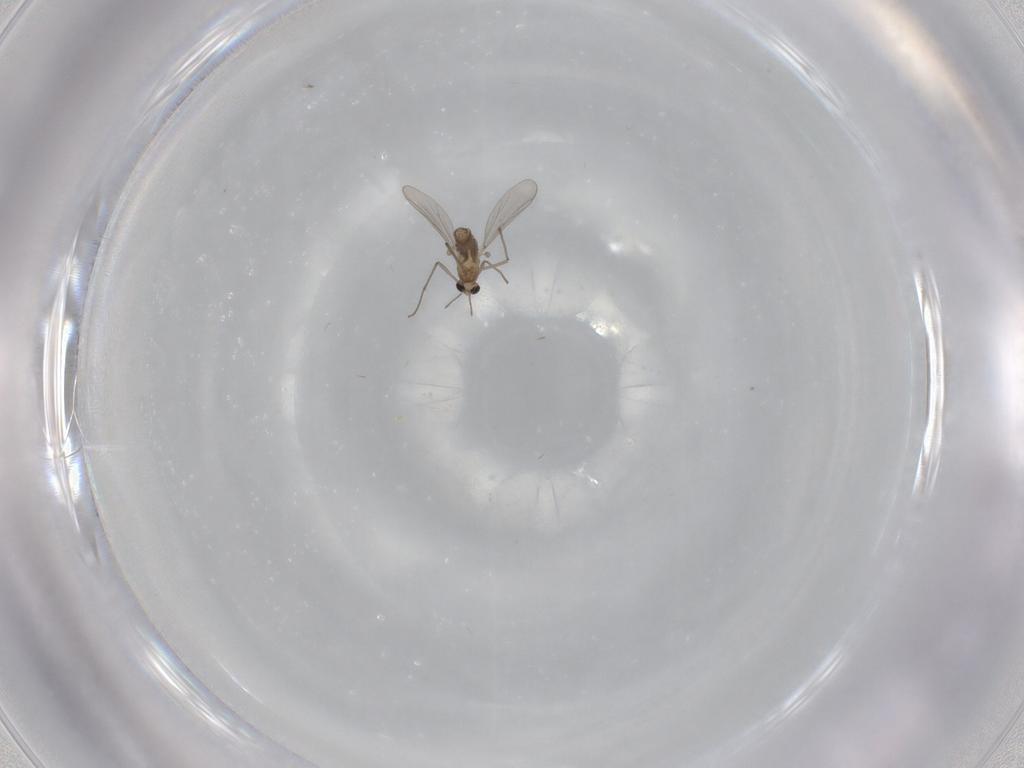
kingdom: Animalia
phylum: Arthropoda
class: Insecta
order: Diptera
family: Chironomidae
